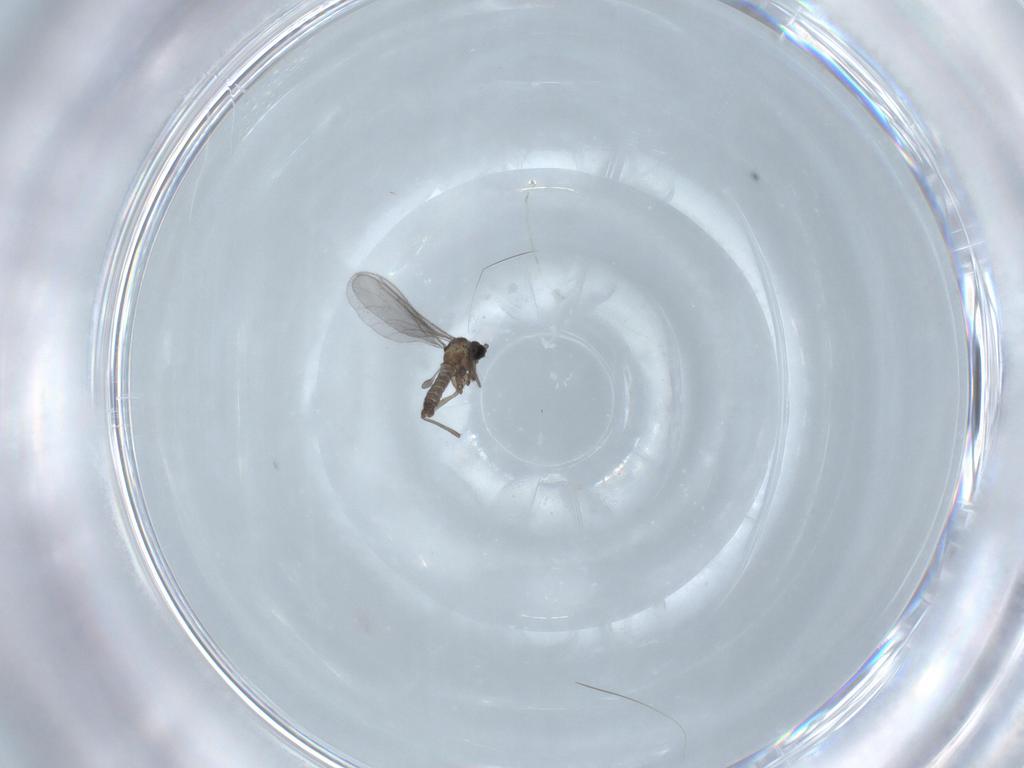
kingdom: Animalia
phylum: Arthropoda
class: Insecta
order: Diptera
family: Sciaridae
